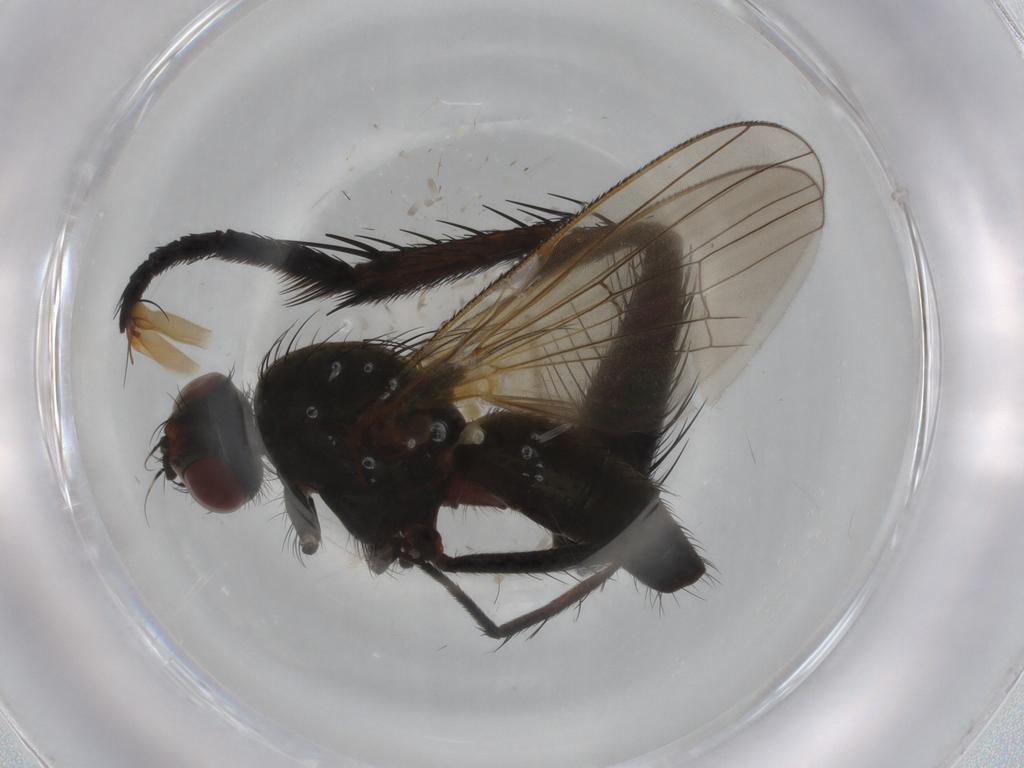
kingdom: Animalia
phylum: Arthropoda
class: Insecta
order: Diptera
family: Anthomyiidae
